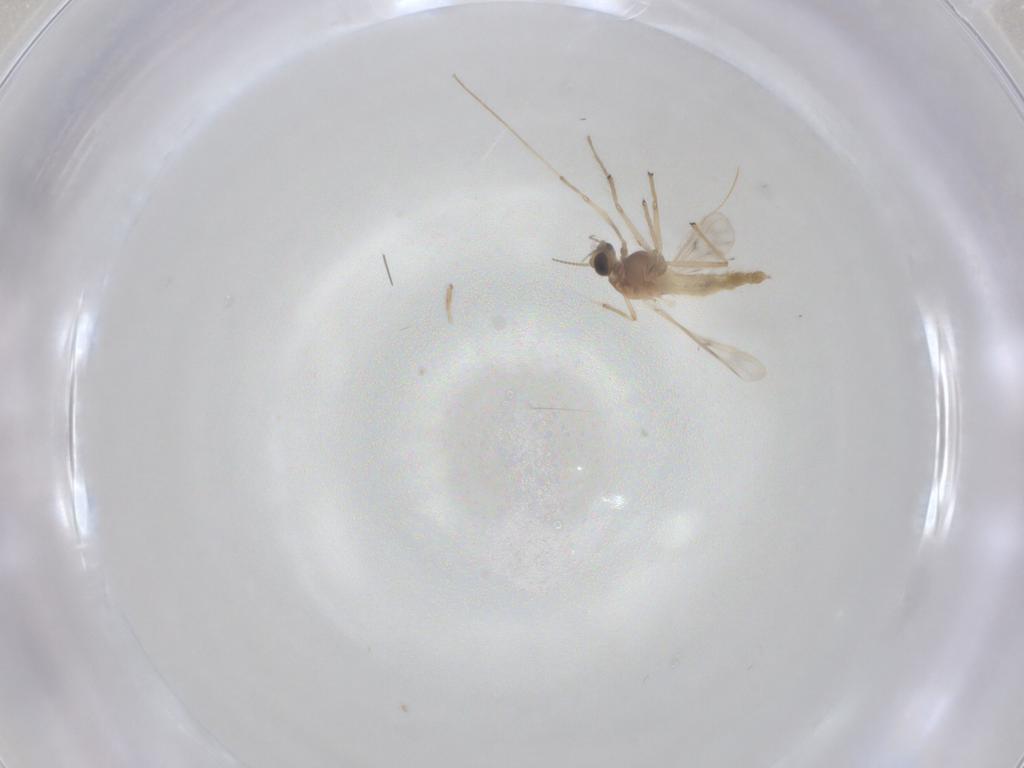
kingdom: Animalia
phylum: Arthropoda
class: Insecta
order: Diptera
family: Chironomidae
